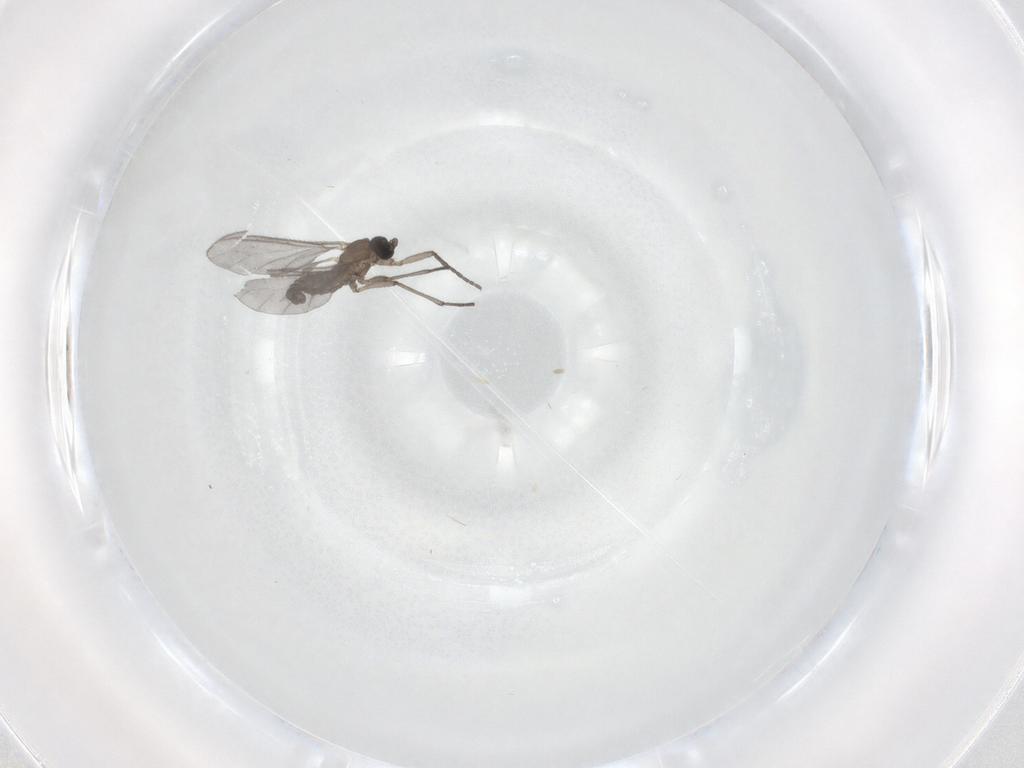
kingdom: Animalia
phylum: Arthropoda
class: Insecta
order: Diptera
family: Sciaridae
